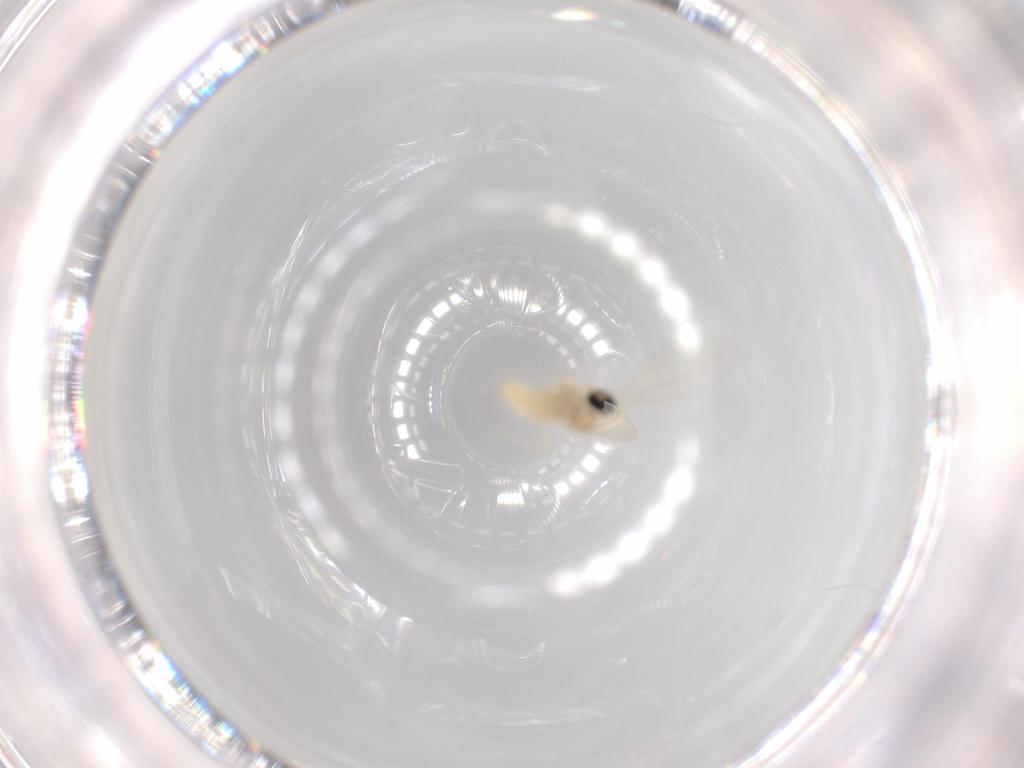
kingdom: Animalia
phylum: Arthropoda
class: Insecta
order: Diptera
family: Cecidomyiidae
